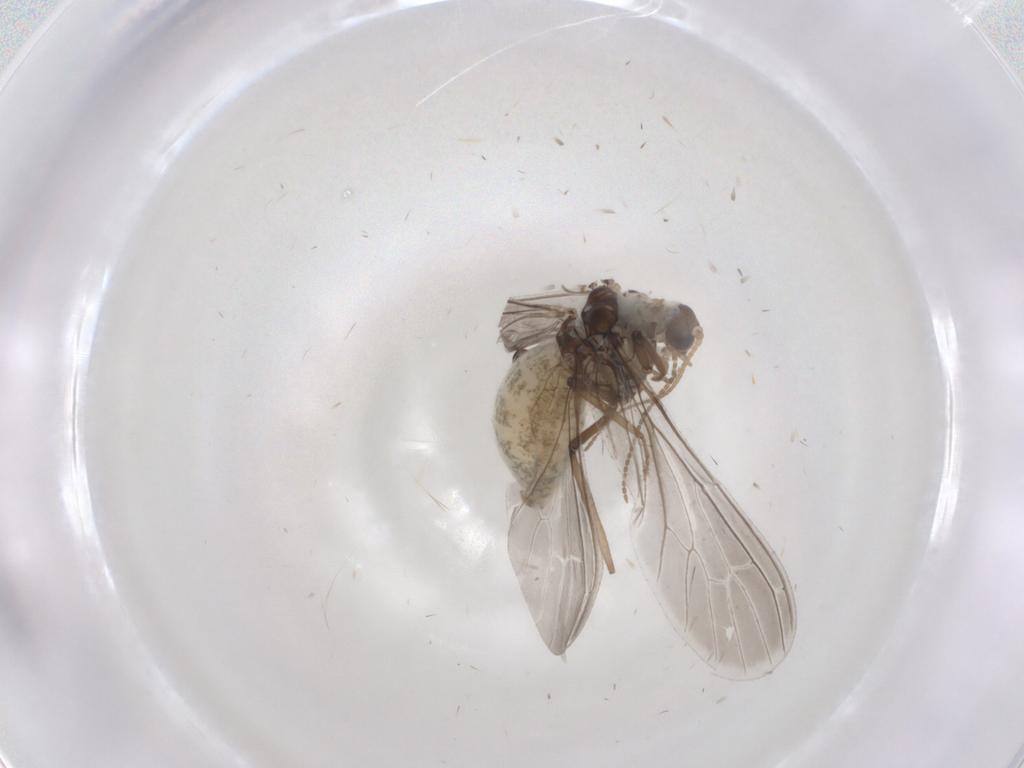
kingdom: Animalia
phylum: Arthropoda
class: Insecta
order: Neuroptera
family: Coniopterygidae
